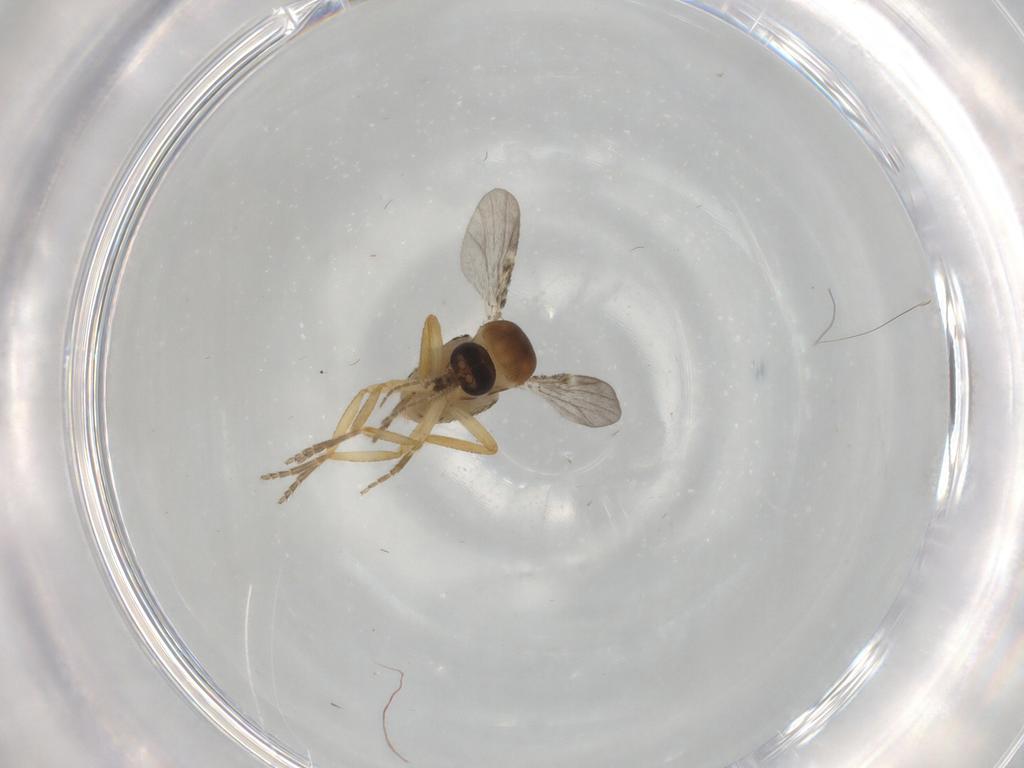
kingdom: Animalia
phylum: Arthropoda
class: Insecta
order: Diptera
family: Ceratopogonidae
